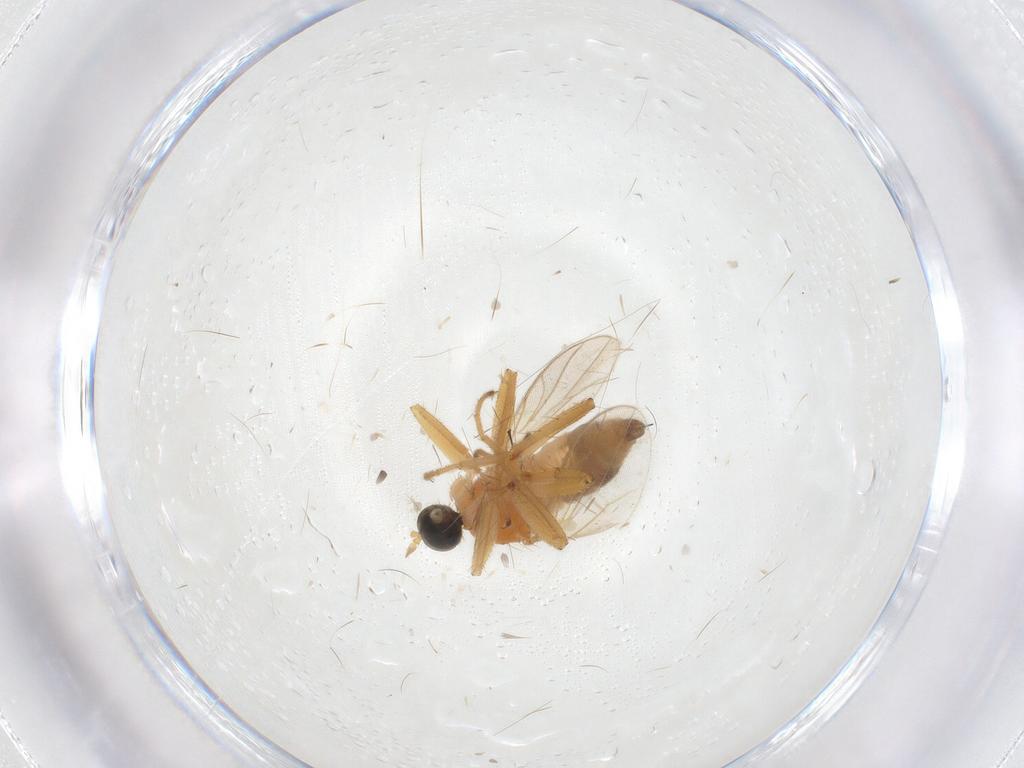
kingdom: Animalia
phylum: Arthropoda
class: Insecta
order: Diptera
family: Hybotidae
